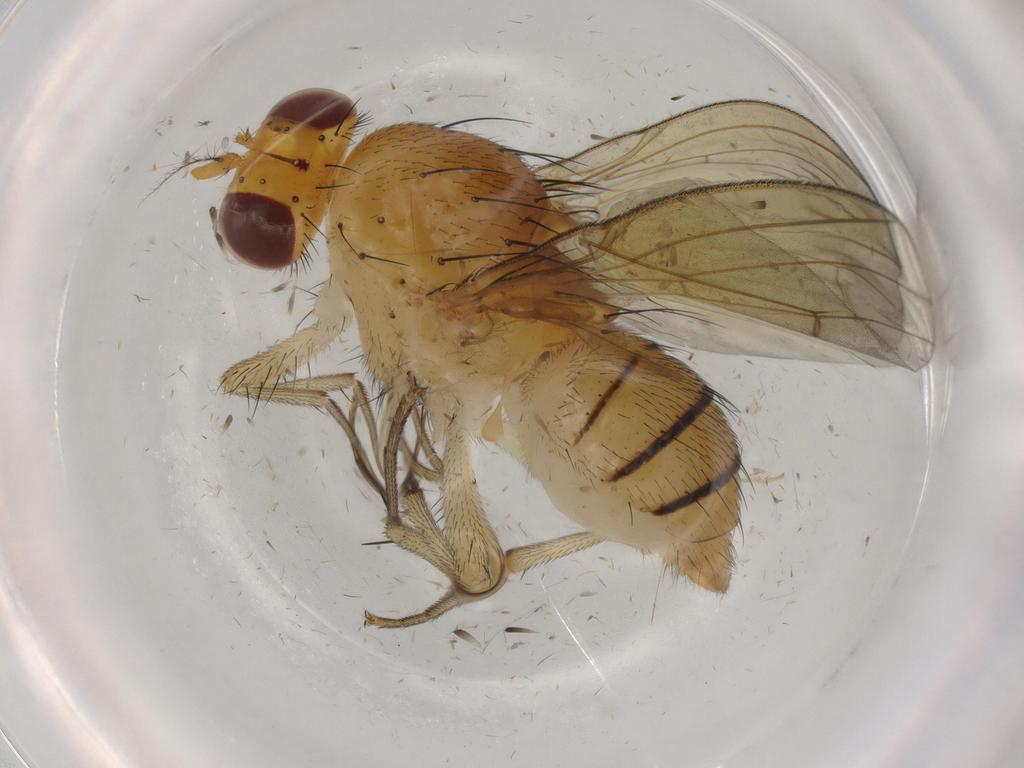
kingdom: Animalia
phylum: Arthropoda
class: Insecta
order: Diptera
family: Chironomidae
